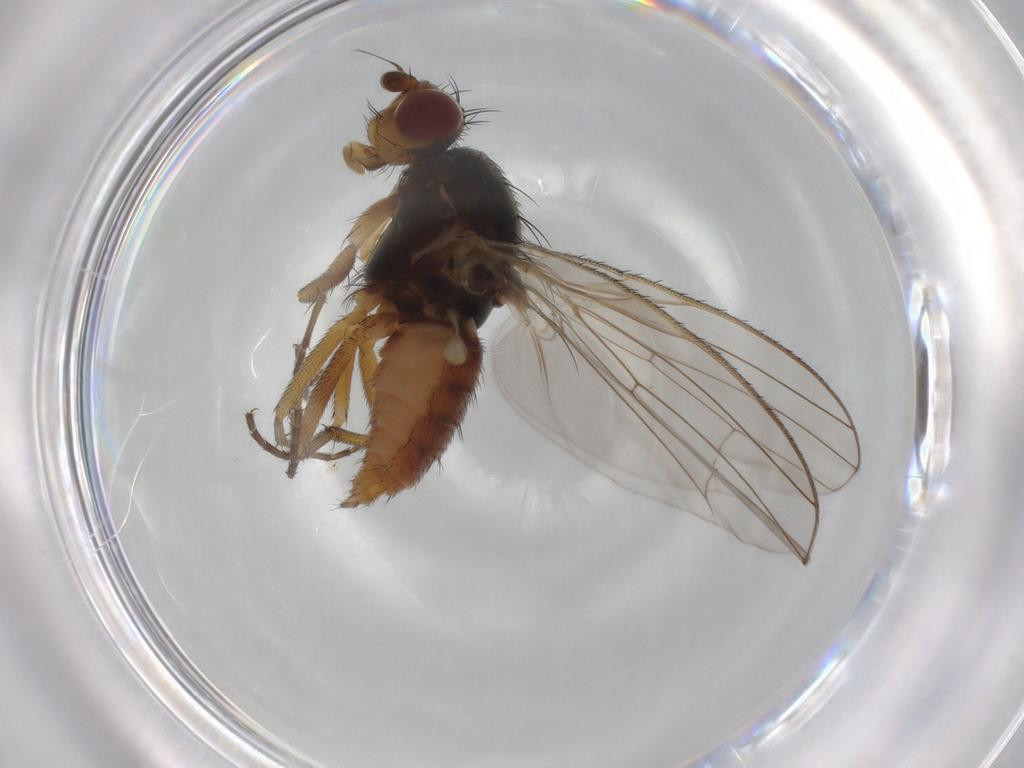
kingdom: Animalia
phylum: Arthropoda
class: Insecta
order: Diptera
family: Heleomyzidae
